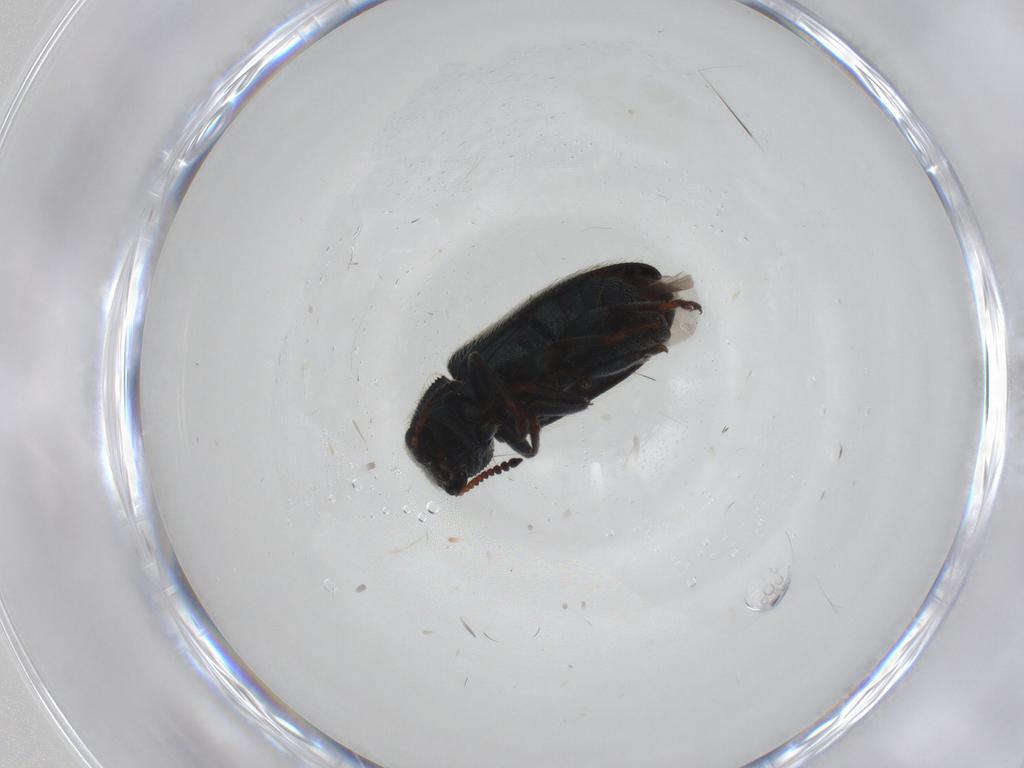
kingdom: Animalia
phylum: Arthropoda
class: Insecta
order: Coleoptera
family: Melyridae
